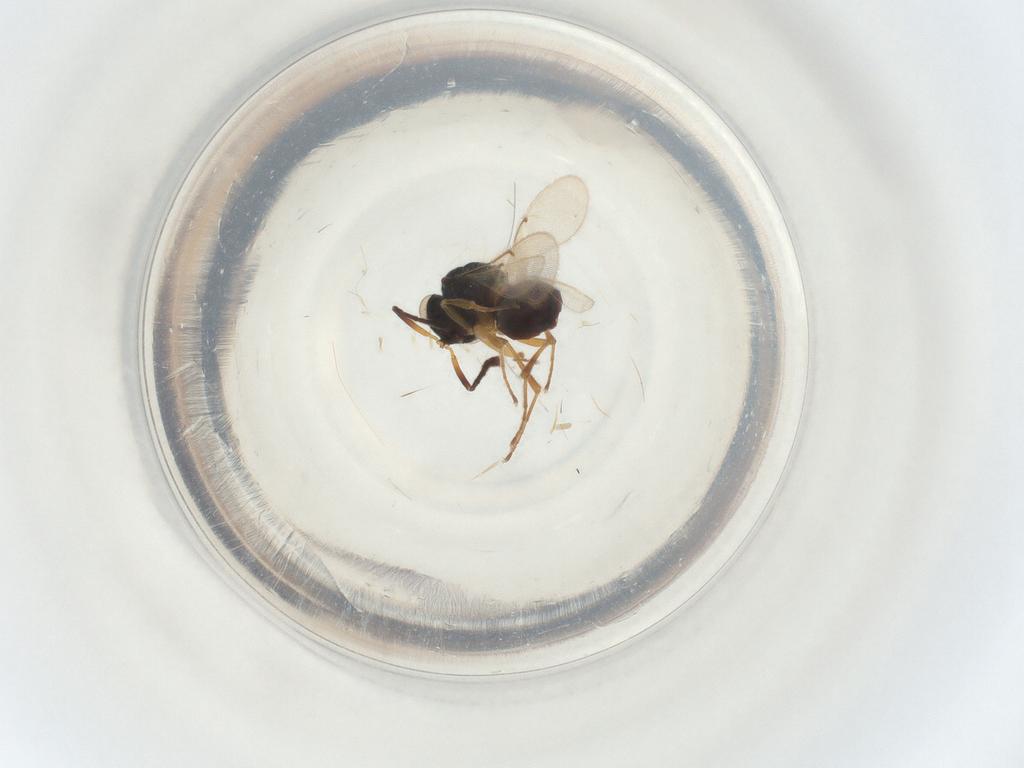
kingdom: Animalia
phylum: Arthropoda
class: Insecta
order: Hymenoptera
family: Scelionidae
